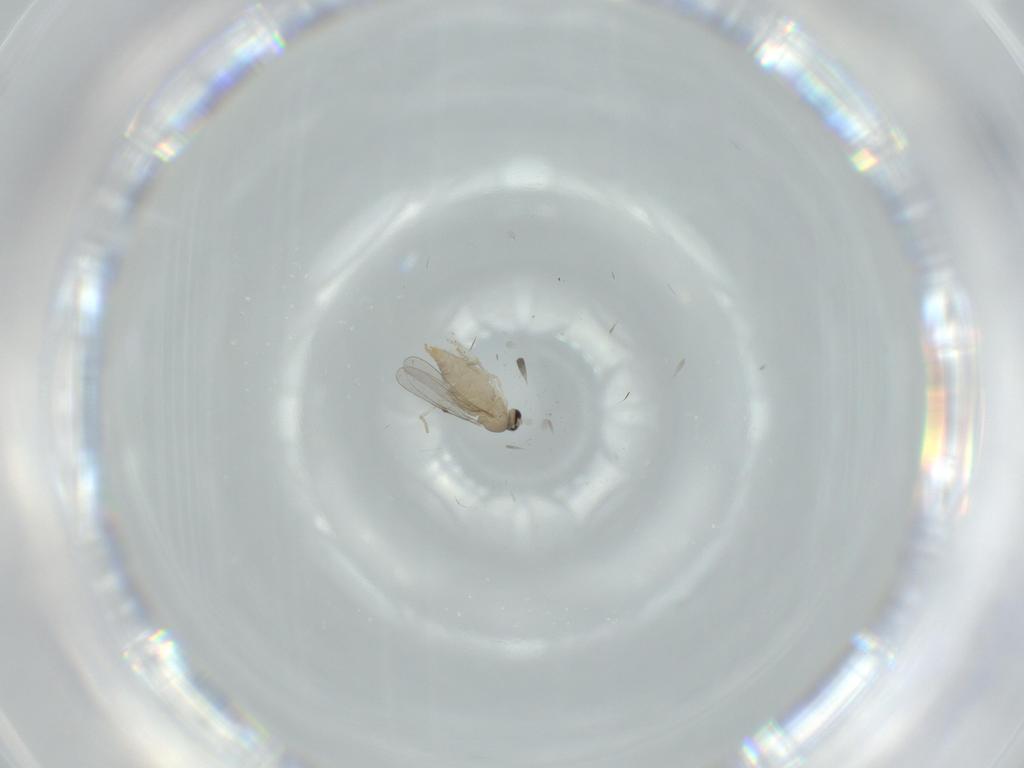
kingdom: Animalia
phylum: Arthropoda
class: Insecta
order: Diptera
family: Cecidomyiidae
